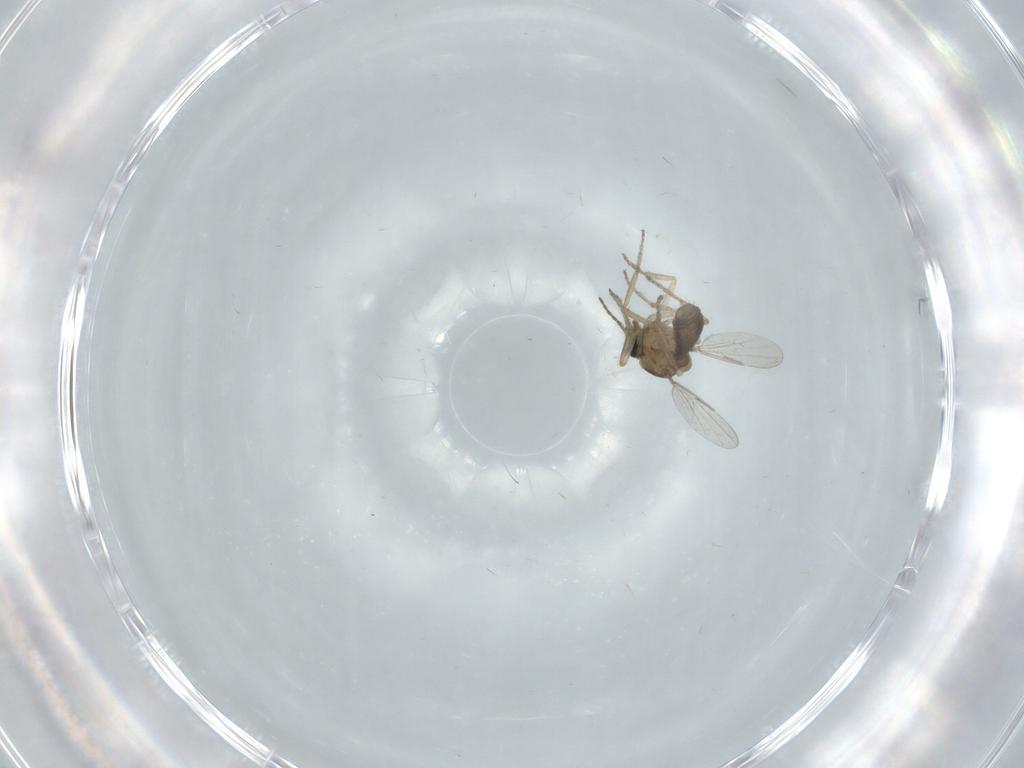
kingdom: Animalia
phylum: Arthropoda
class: Insecta
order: Diptera
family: Ceratopogonidae
